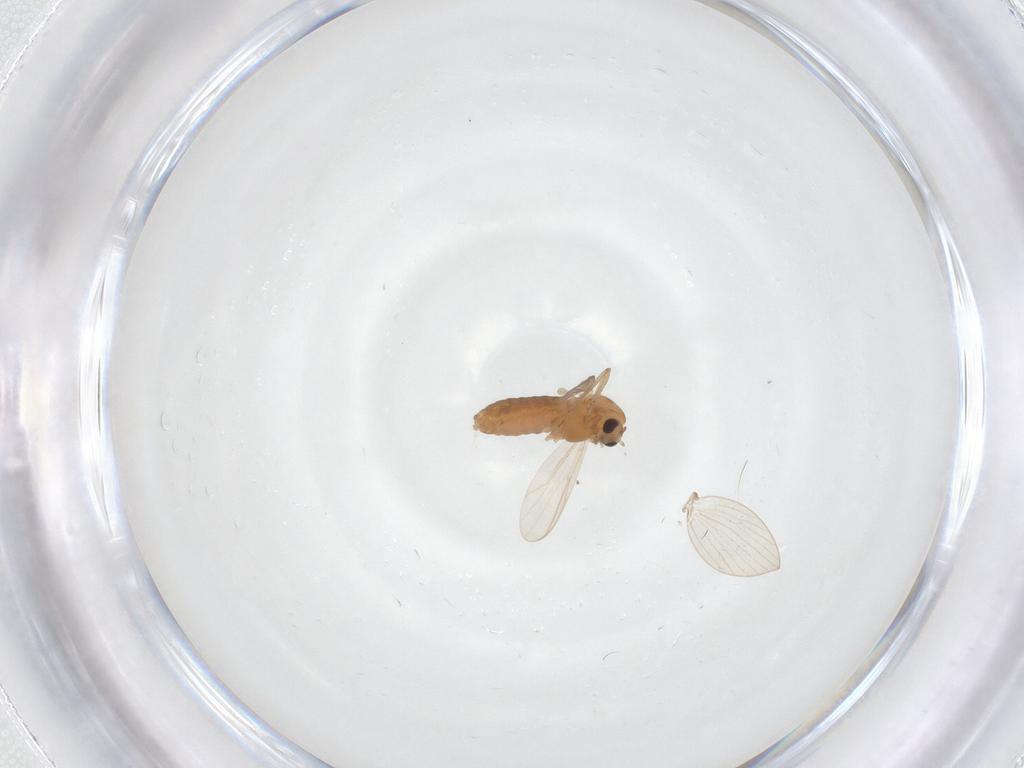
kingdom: Animalia
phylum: Arthropoda
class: Insecta
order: Diptera
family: Chironomidae
